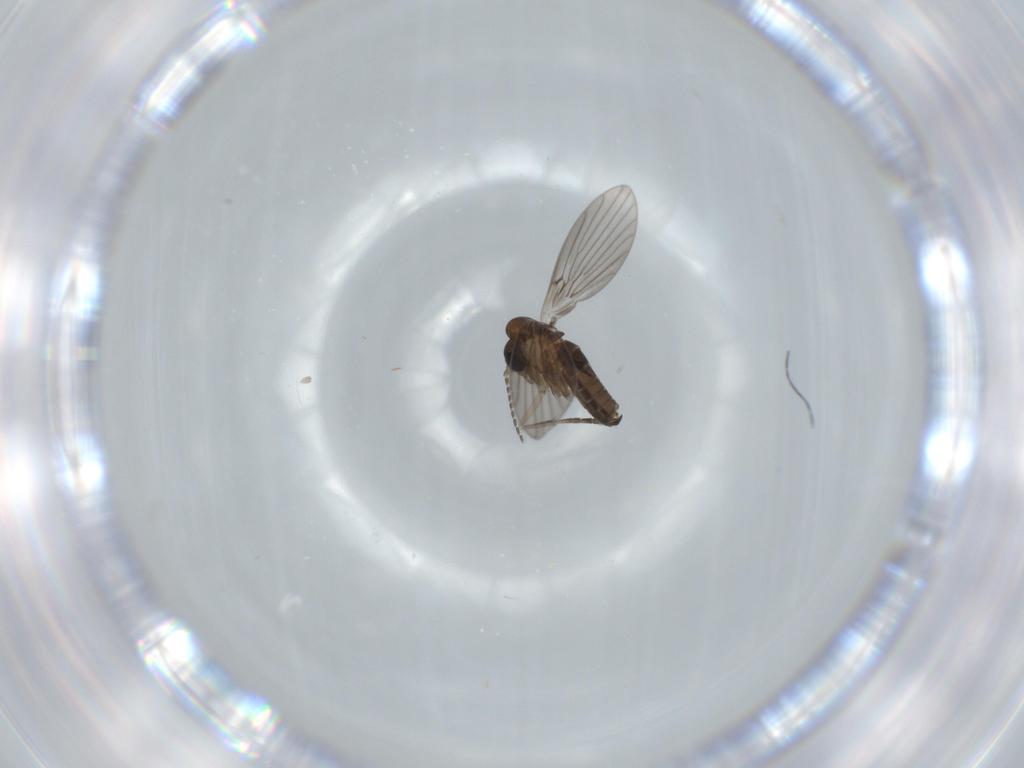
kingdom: Animalia
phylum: Arthropoda
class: Insecta
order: Diptera
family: Psychodidae
